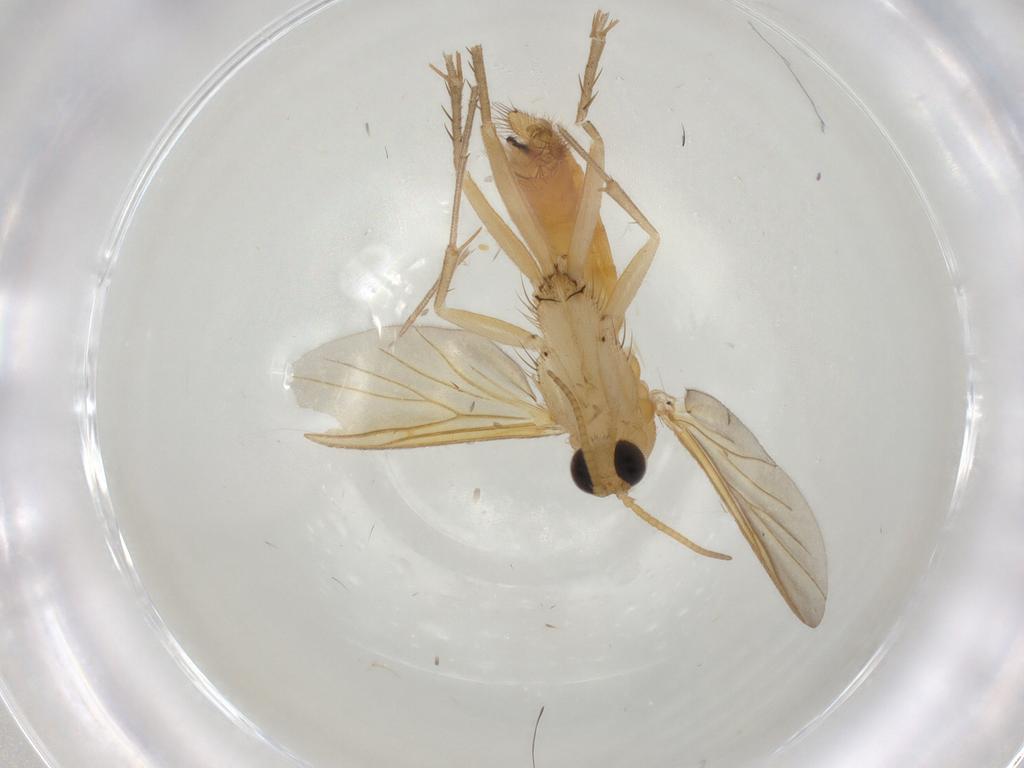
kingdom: Animalia
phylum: Arthropoda
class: Insecta
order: Diptera
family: Mycetophilidae
